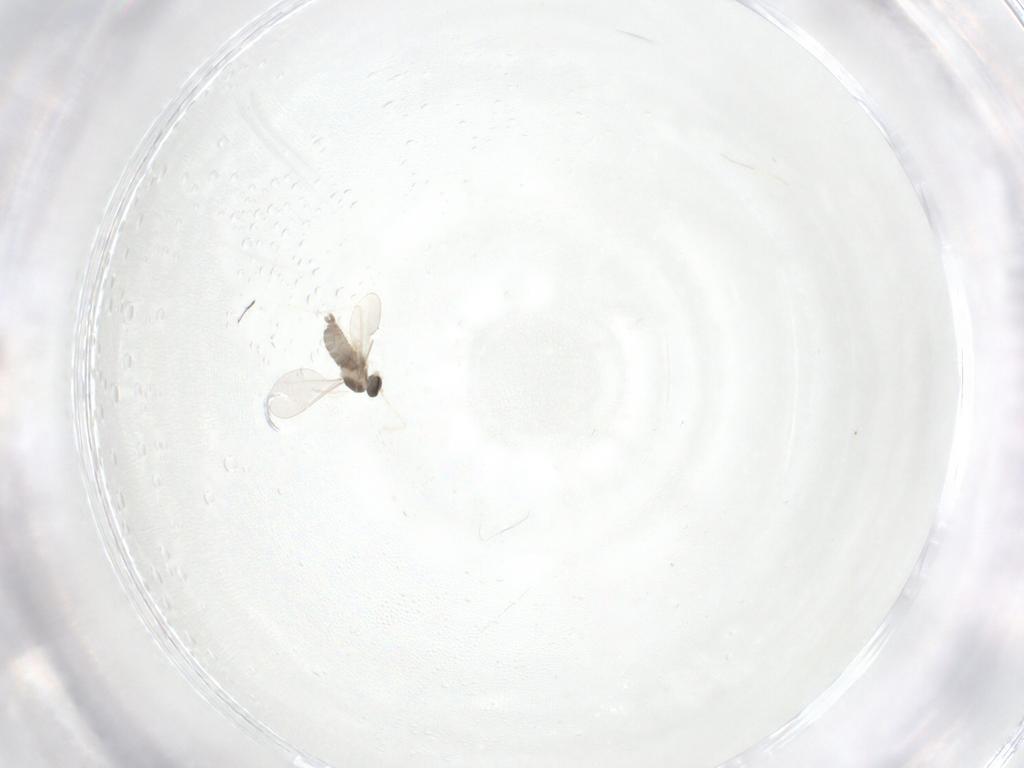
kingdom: Animalia
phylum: Arthropoda
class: Insecta
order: Diptera
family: Cecidomyiidae
